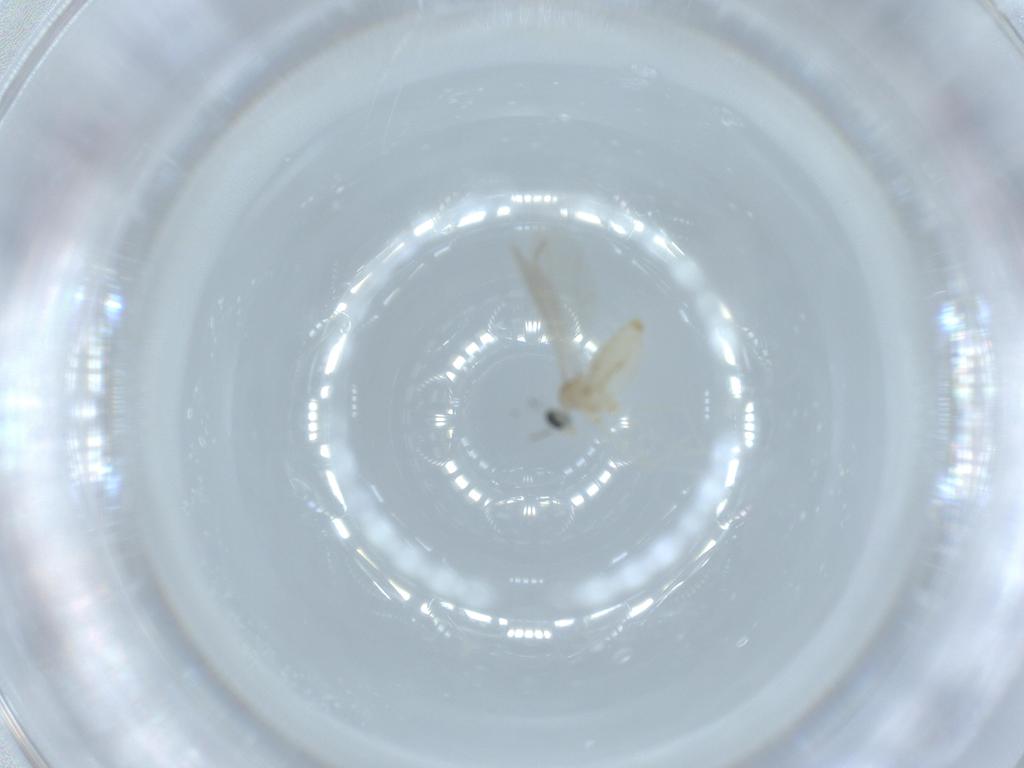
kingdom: Animalia
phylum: Arthropoda
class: Insecta
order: Diptera
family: Cecidomyiidae
